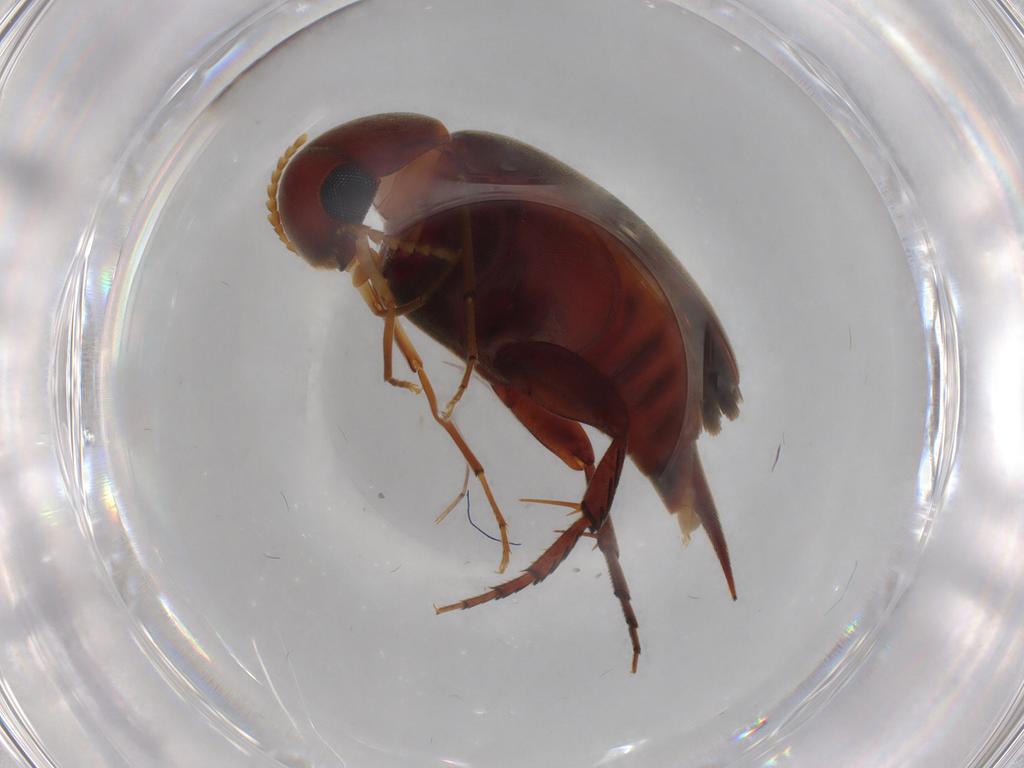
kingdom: Animalia
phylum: Arthropoda
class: Insecta
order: Coleoptera
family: Mordellidae
